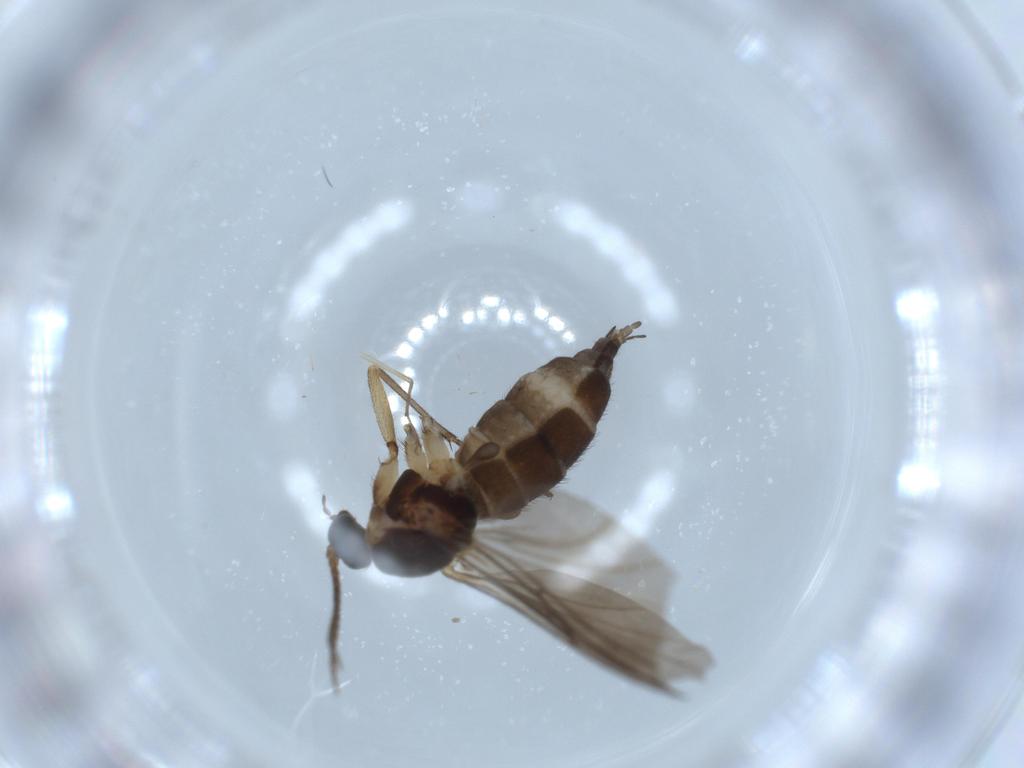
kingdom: Animalia
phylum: Arthropoda
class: Insecta
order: Diptera
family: Sciaridae
